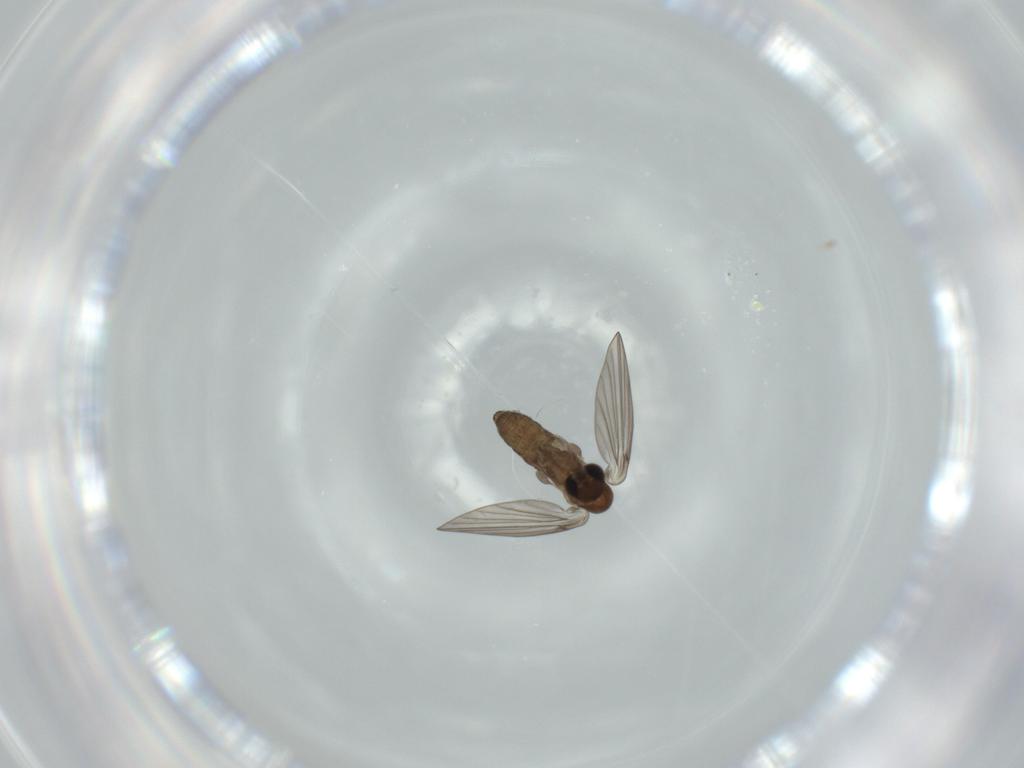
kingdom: Animalia
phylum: Arthropoda
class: Insecta
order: Diptera
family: Psychodidae
